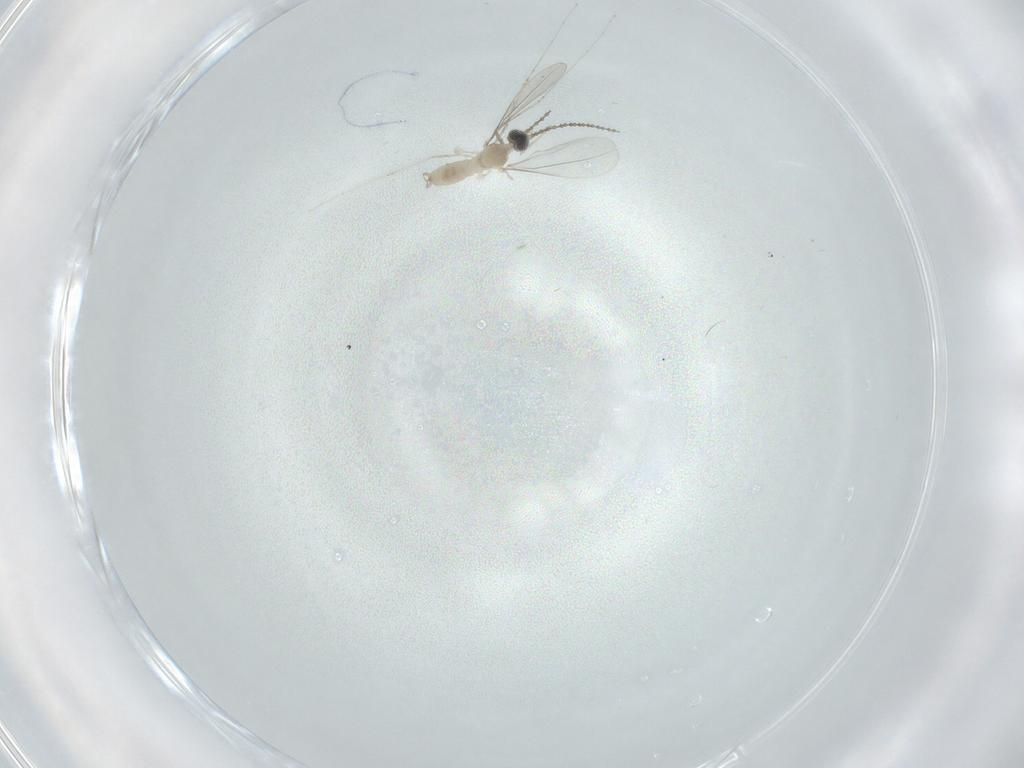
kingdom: Animalia
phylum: Arthropoda
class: Insecta
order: Diptera
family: Cecidomyiidae
